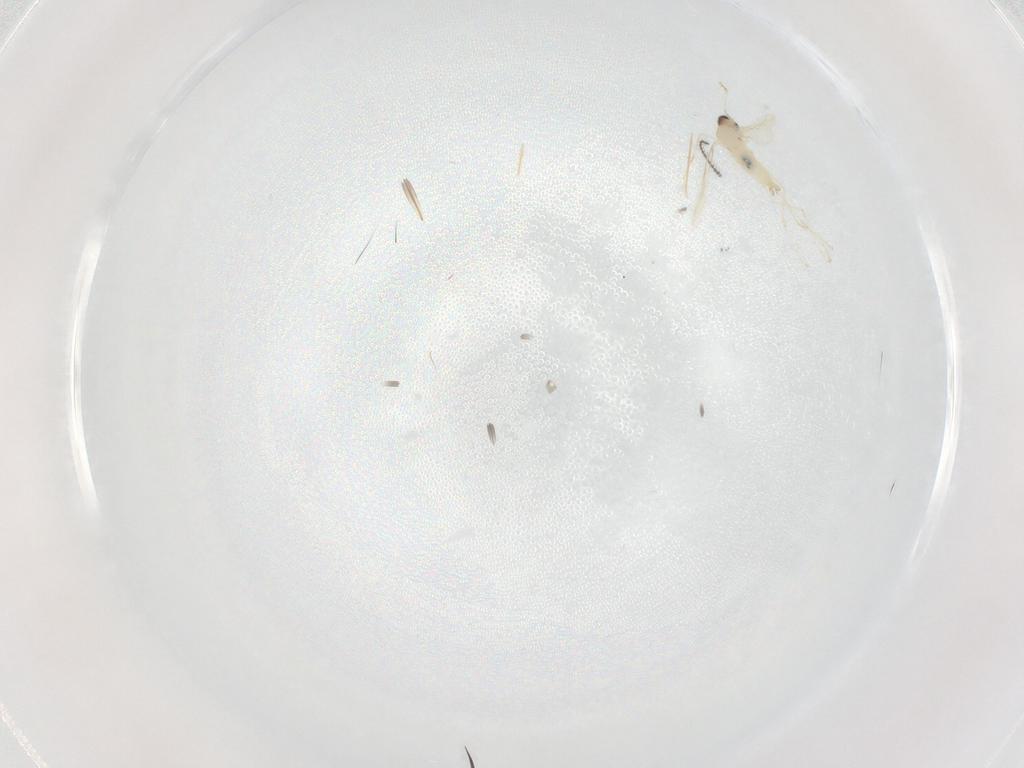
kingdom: Animalia
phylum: Arthropoda
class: Insecta
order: Diptera
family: Cecidomyiidae
